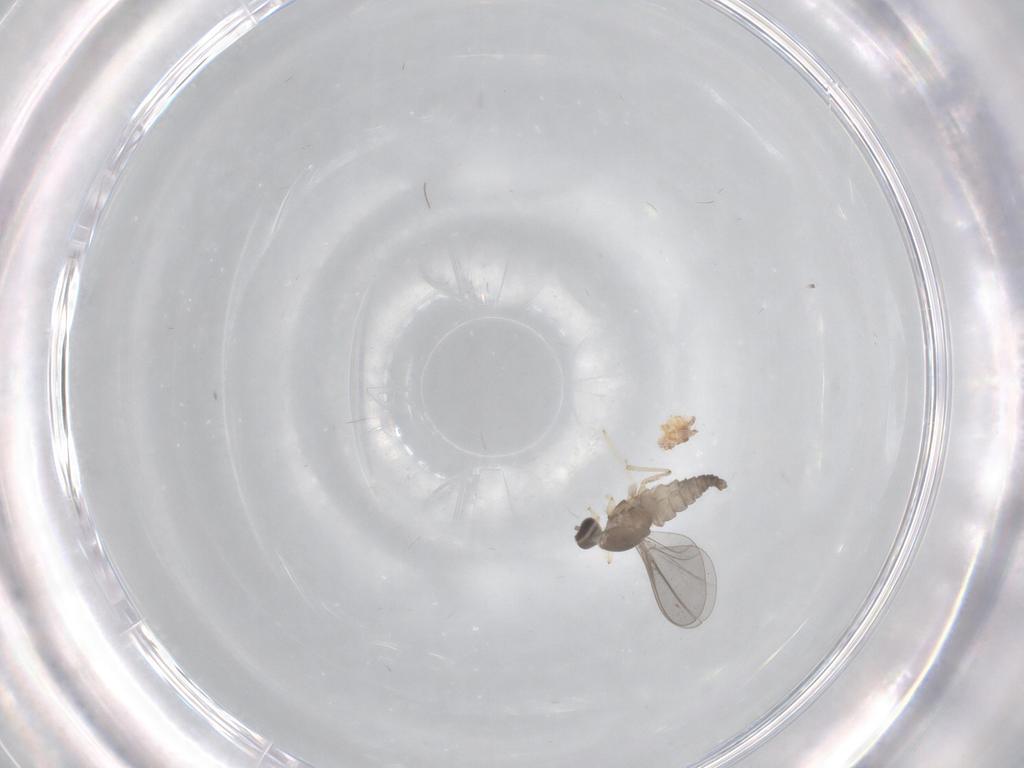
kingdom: Animalia
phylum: Arthropoda
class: Insecta
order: Diptera
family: Cecidomyiidae
